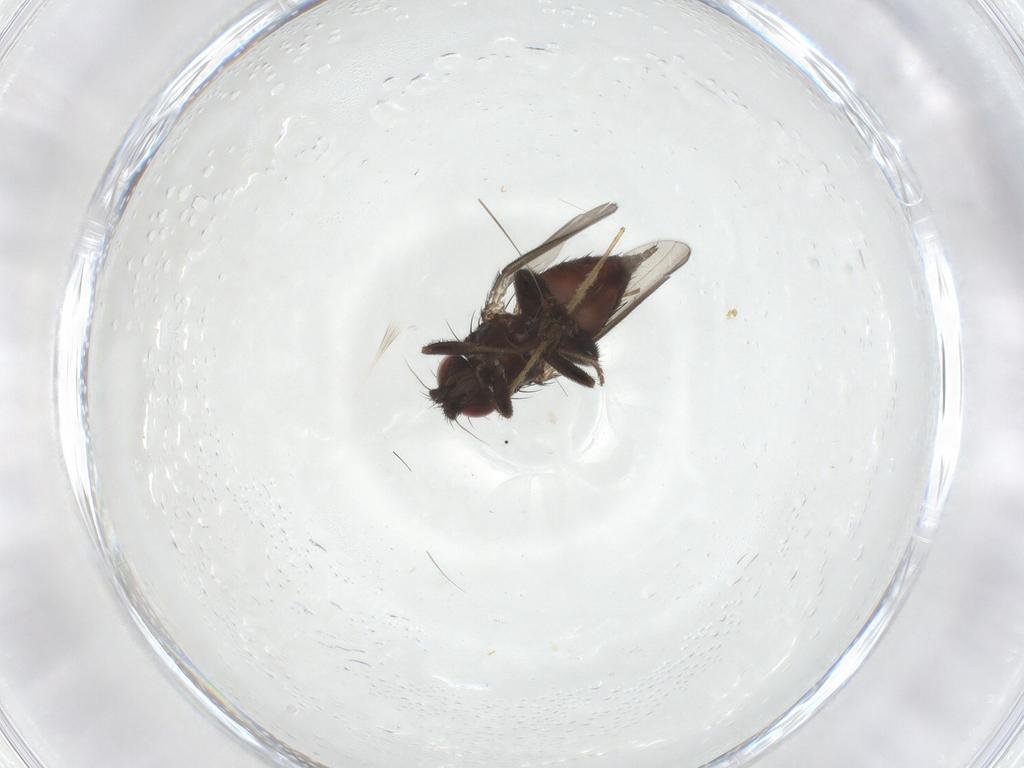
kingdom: Animalia
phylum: Arthropoda
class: Insecta
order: Diptera
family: Milichiidae
